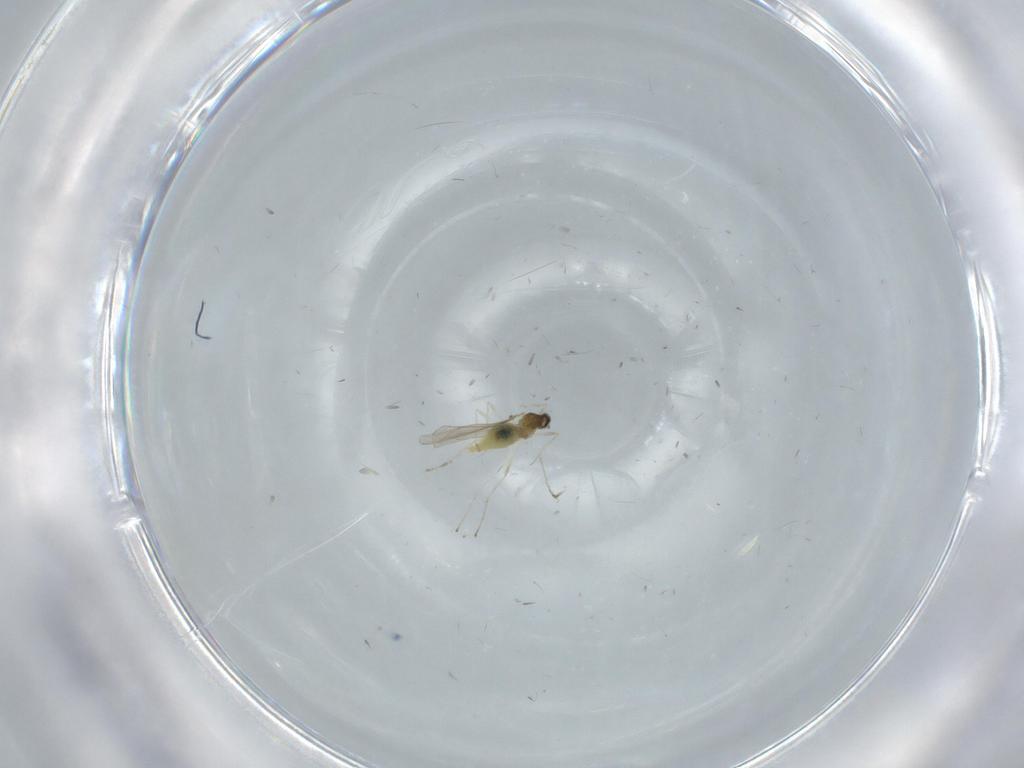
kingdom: Animalia
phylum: Arthropoda
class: Insecta
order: Diptera
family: Cecidomyiidae
